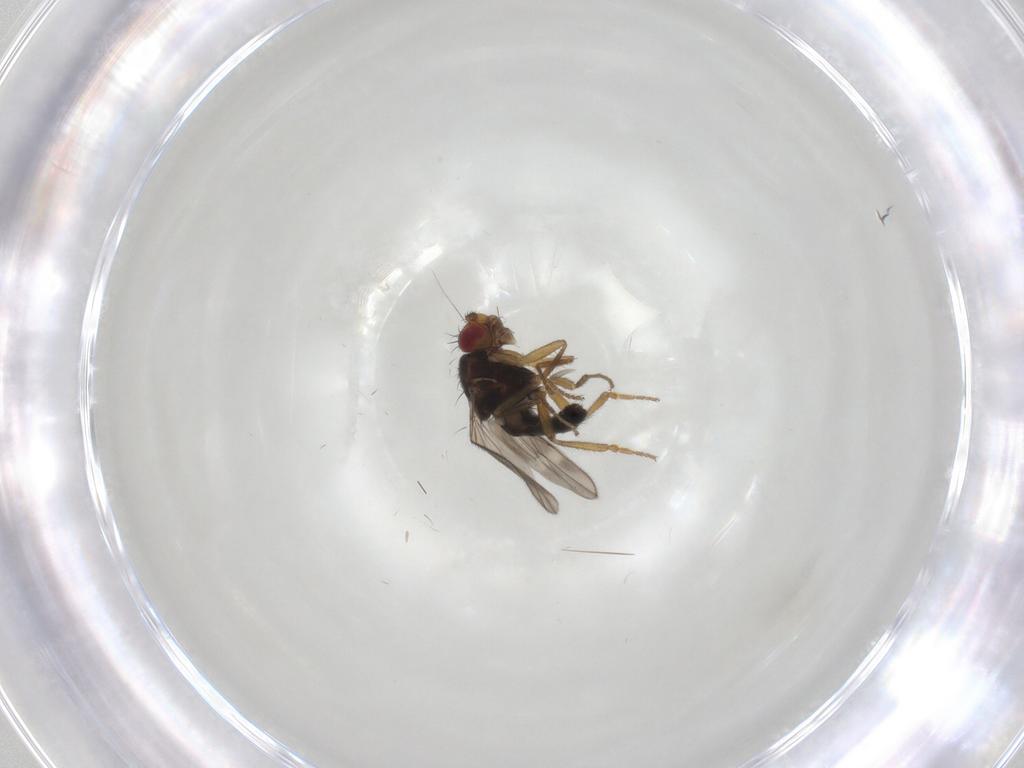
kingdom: Animalia
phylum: Arthropoda
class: Insecta
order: Diptera
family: Sphaeroceridae
